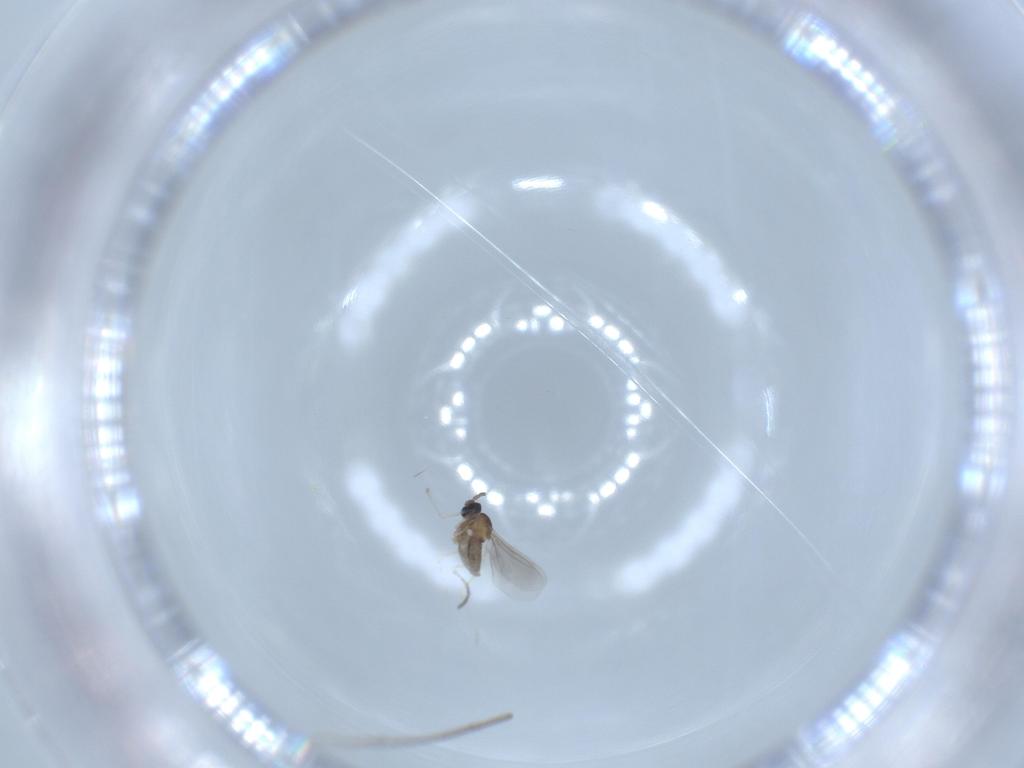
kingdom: Animalia
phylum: Arthropoda
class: Insecta
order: Diptera
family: Cecidomyiidae
